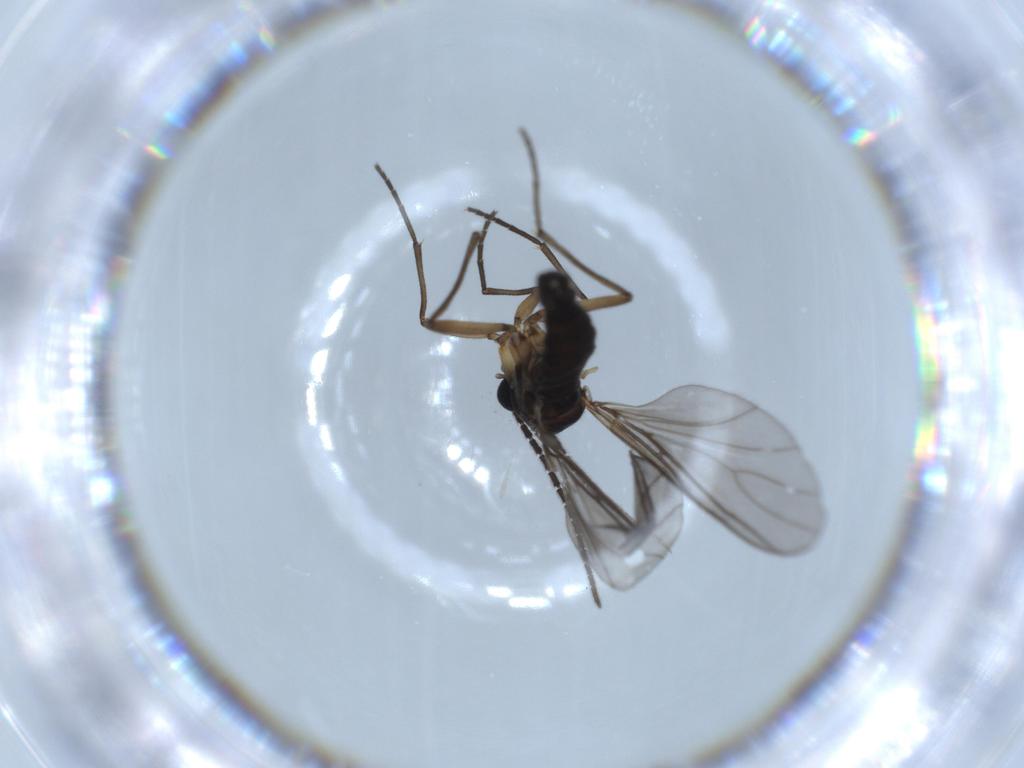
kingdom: Animalia
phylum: Arthropoda
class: Insecta
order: Diptera
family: Sciaridae
